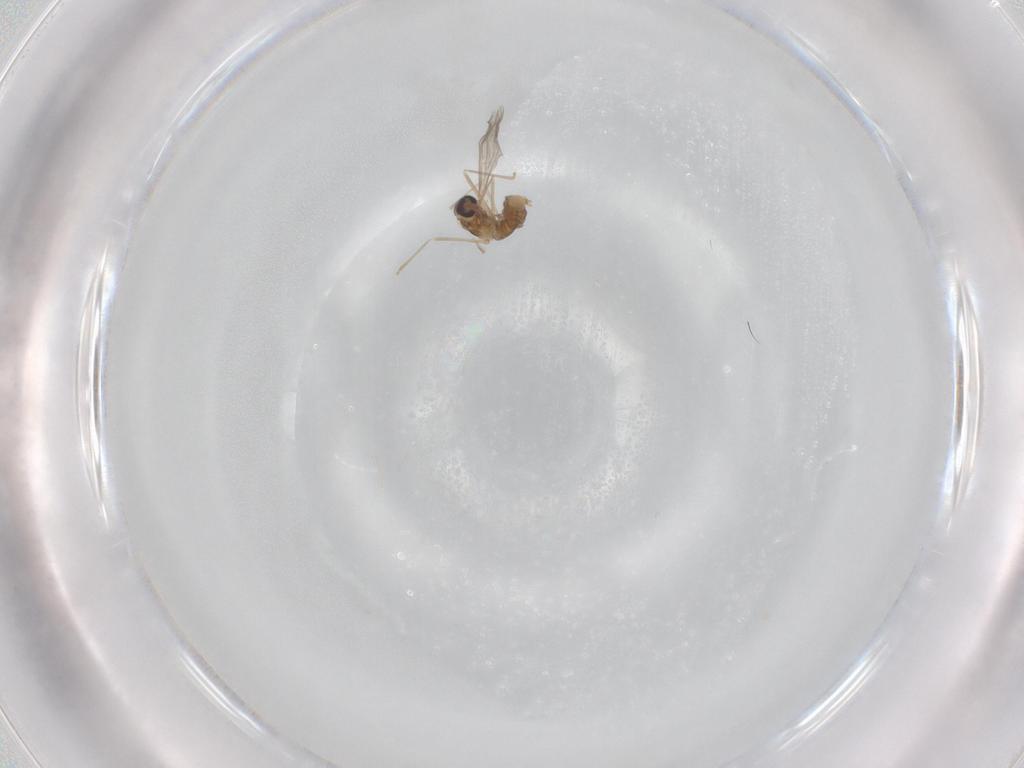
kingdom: Animalia
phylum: Arthropoda
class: Insecta
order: Diptera
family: Cecidomyiidae
